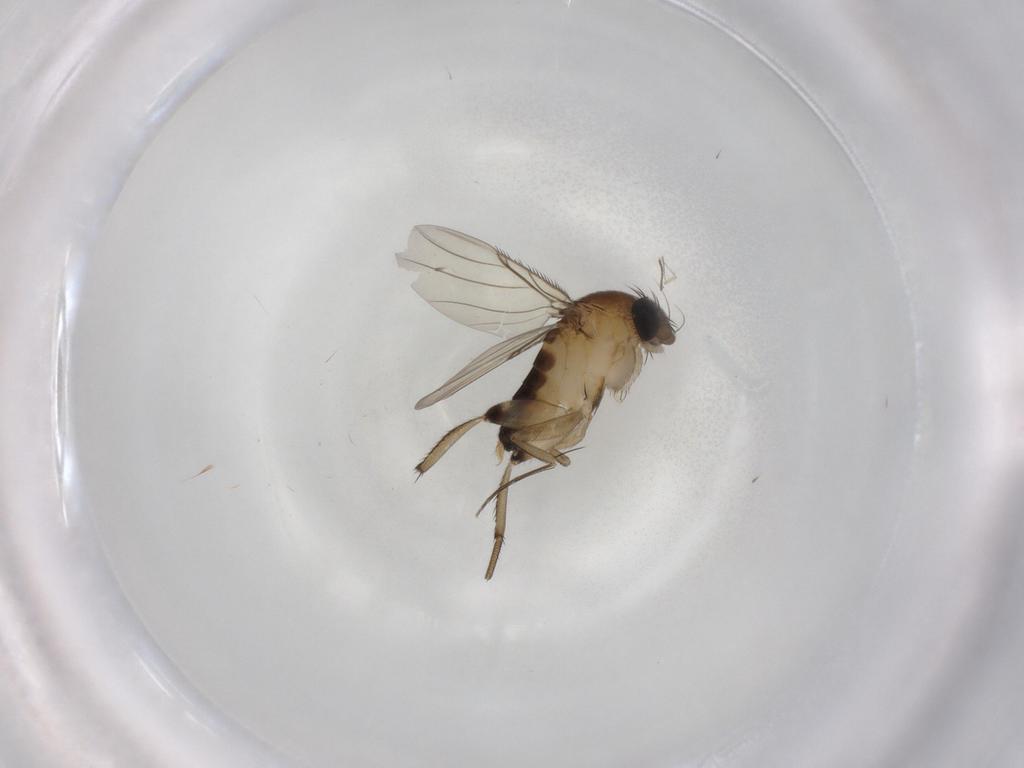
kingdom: Animalia
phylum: Arthropoda
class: Insecta
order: Diptera
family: Phoridae
